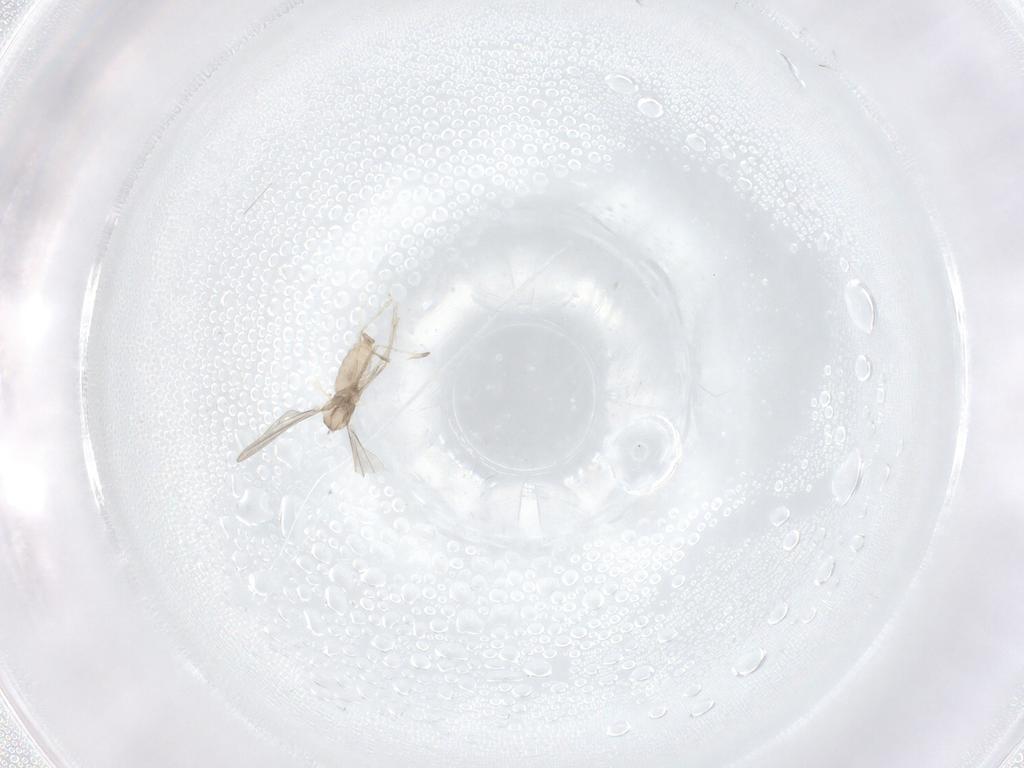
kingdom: Animalia
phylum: Arthropoda
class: Insecta
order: Diptera
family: Cecidomyiidae
